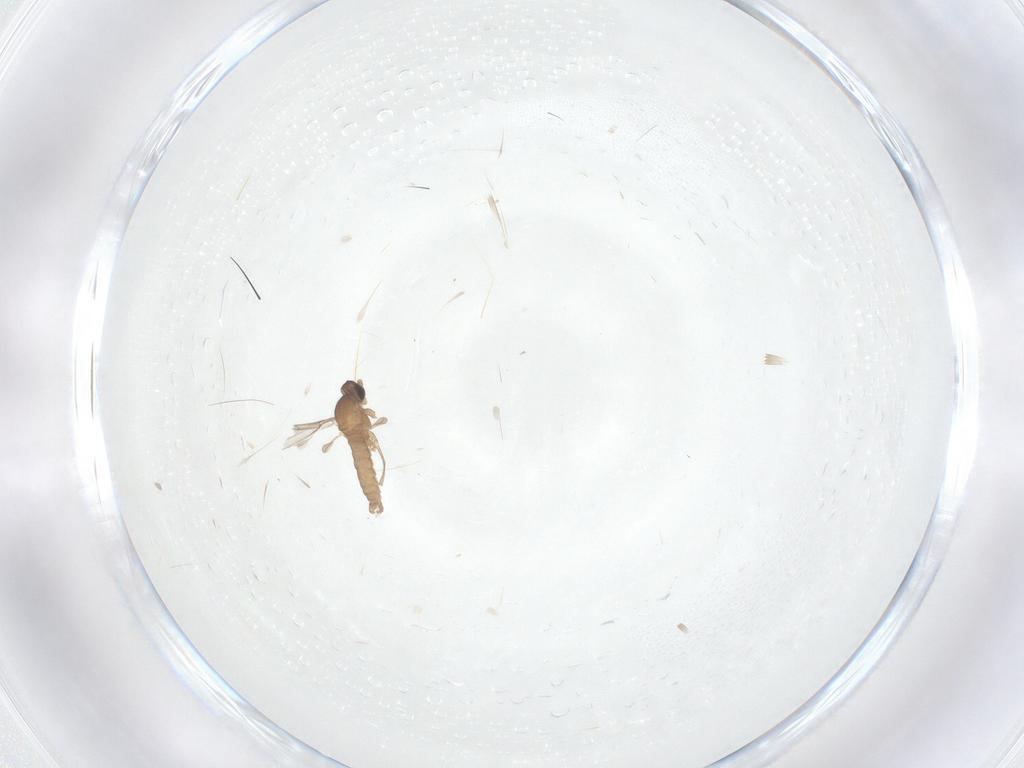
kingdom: Animalia
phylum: Arthropoda
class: Insecta
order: Diptera
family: Cecidomyiidae
